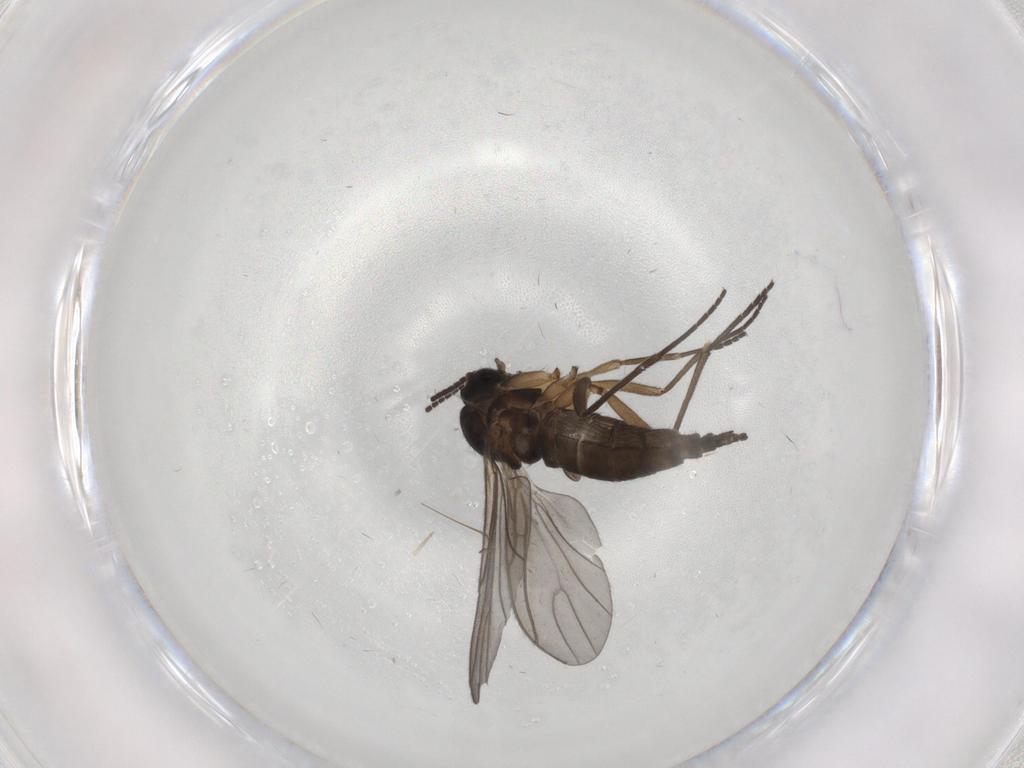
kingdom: Animalia
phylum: Arthropoda
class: Insecta
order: Diptera
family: Sciaridae
